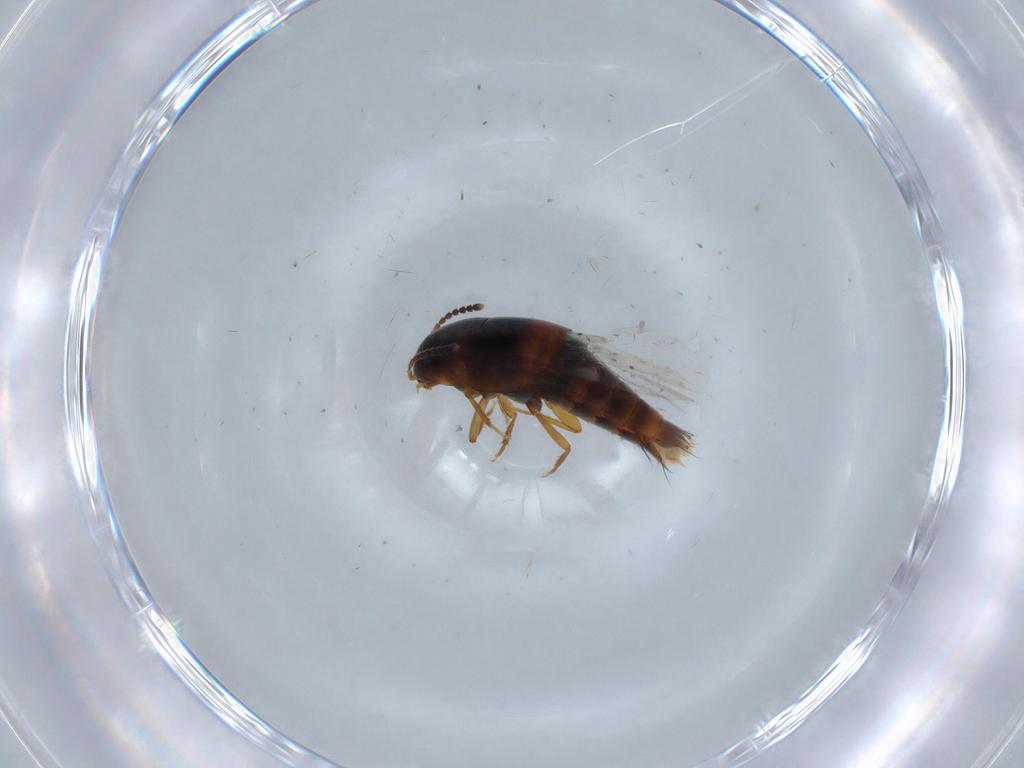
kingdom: Animalia
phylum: Arthropoda
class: Insecta
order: Coleoptera
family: Staphylinidae
